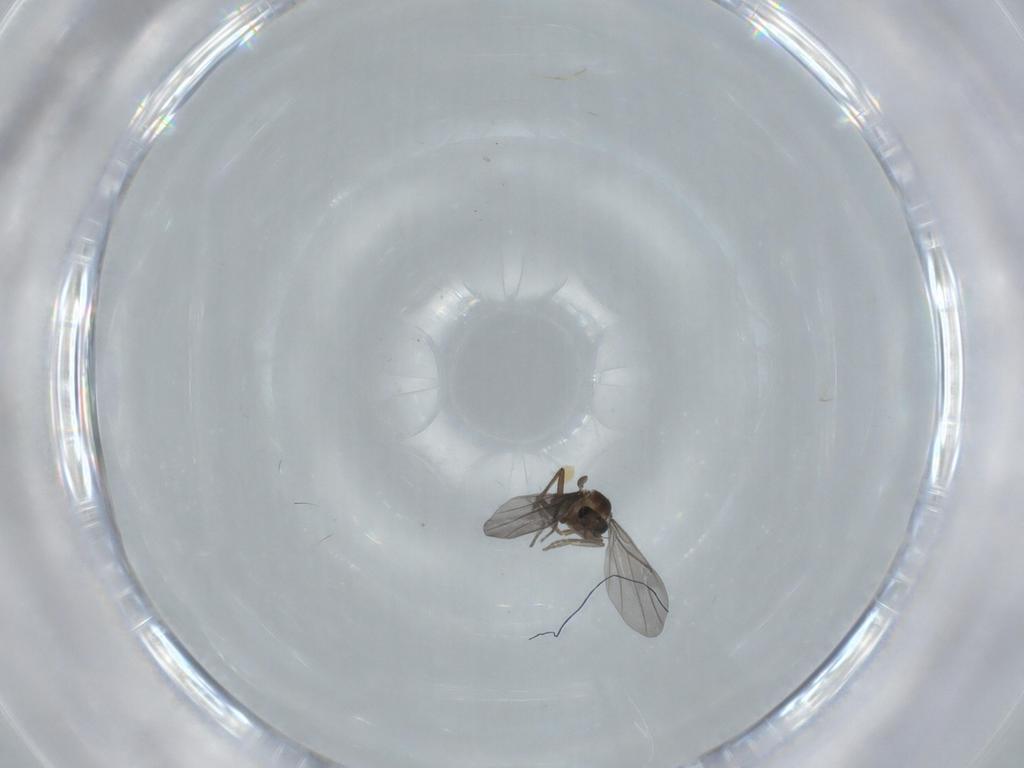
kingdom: Animalia
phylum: Arthropoda
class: Insecta
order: Diptera
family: Phoridae
